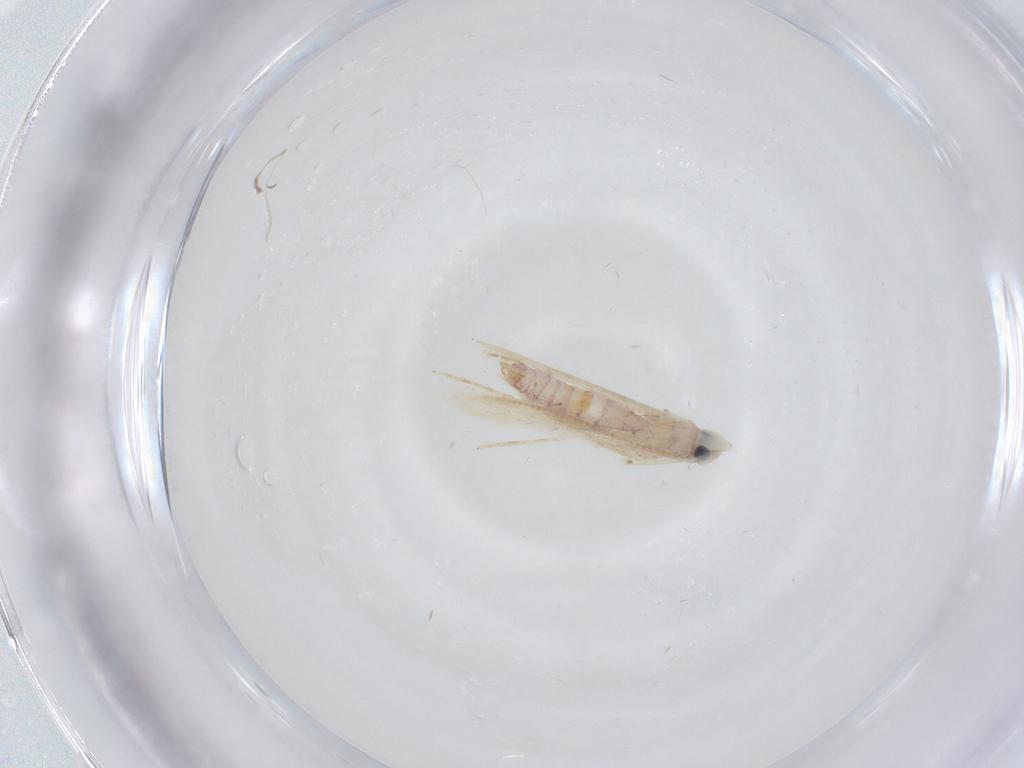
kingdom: Animalia
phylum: Arthropoda
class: Insecta
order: Diptera
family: Psychodidae
